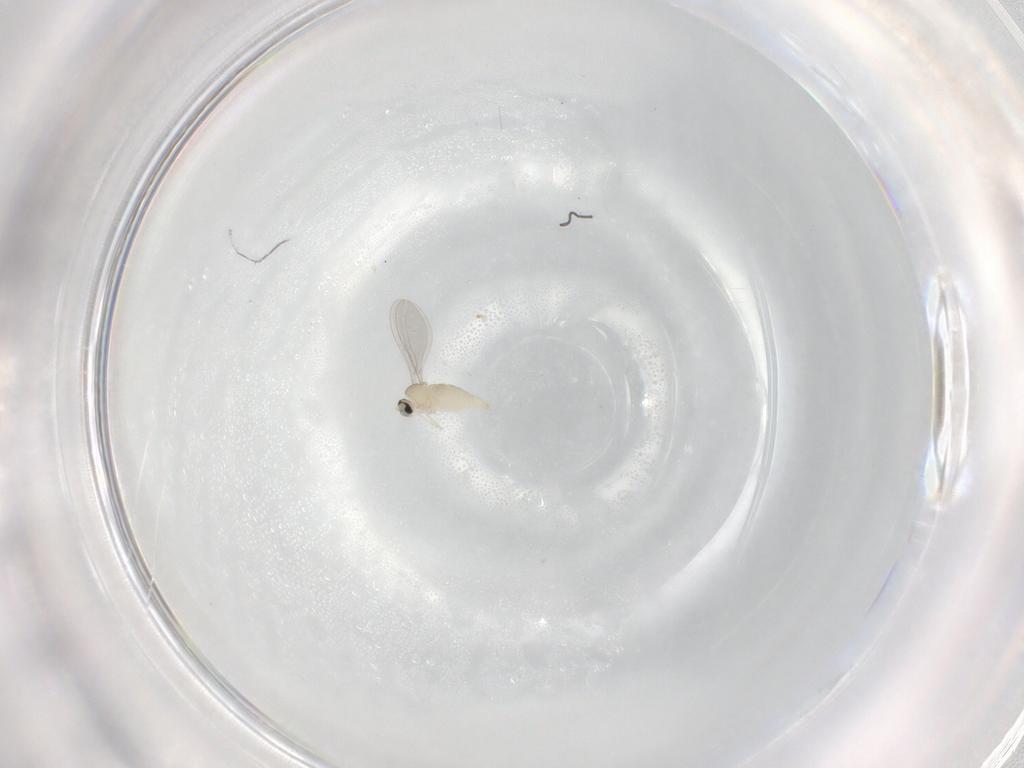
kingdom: Animalia
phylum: Arthropoda
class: Insecta
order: Diptera
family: Cecidomyiidae
